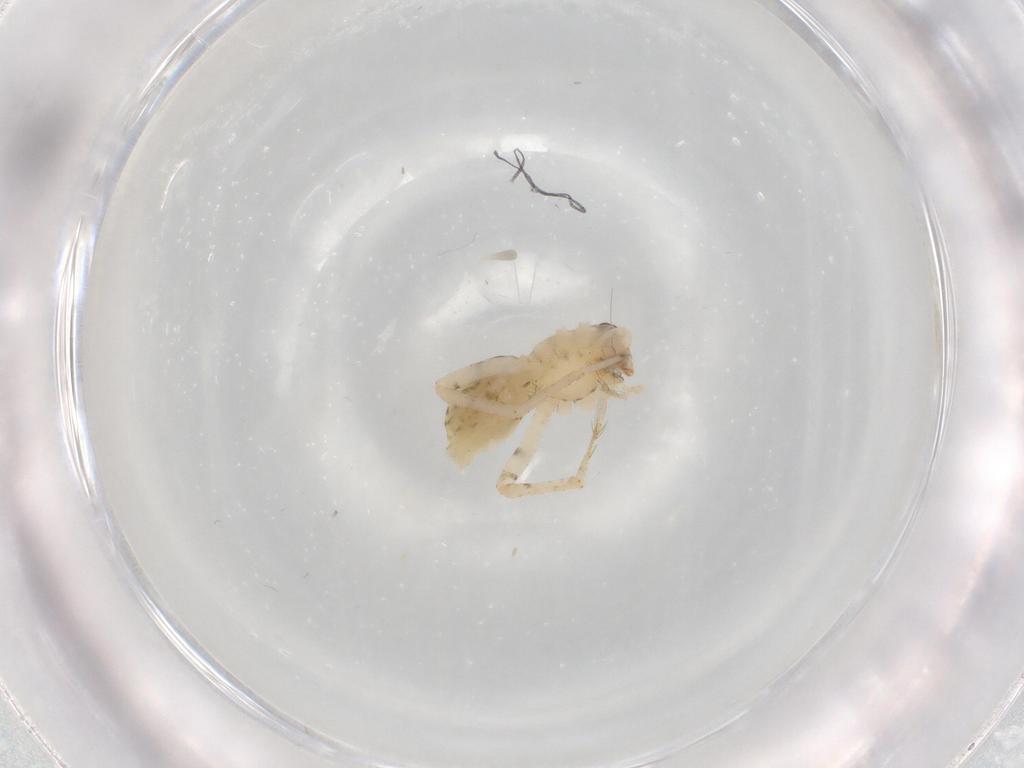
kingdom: Animalia
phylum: Arthropoda
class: Arachnida
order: Araneae
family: Anyphaenidae
